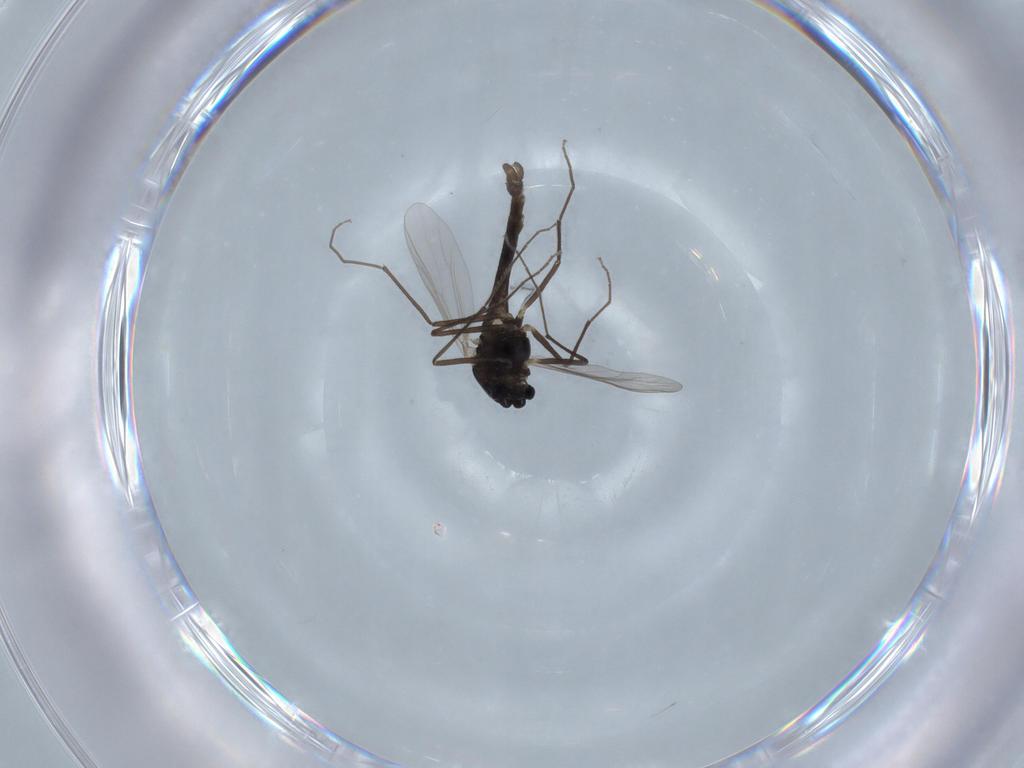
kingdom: Animalia
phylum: Arthropoda
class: Insecta
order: Diptera
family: Chironomidae
